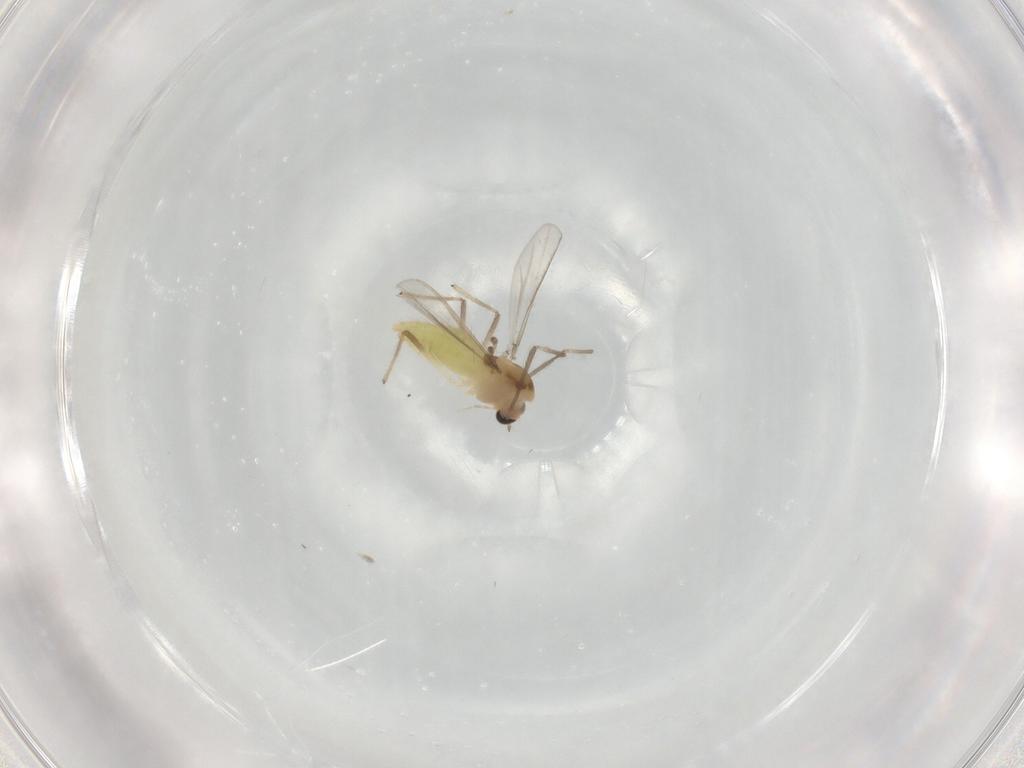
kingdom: Animalia
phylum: Arthropoda
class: Insecta
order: Diptera
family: Chironomidae
